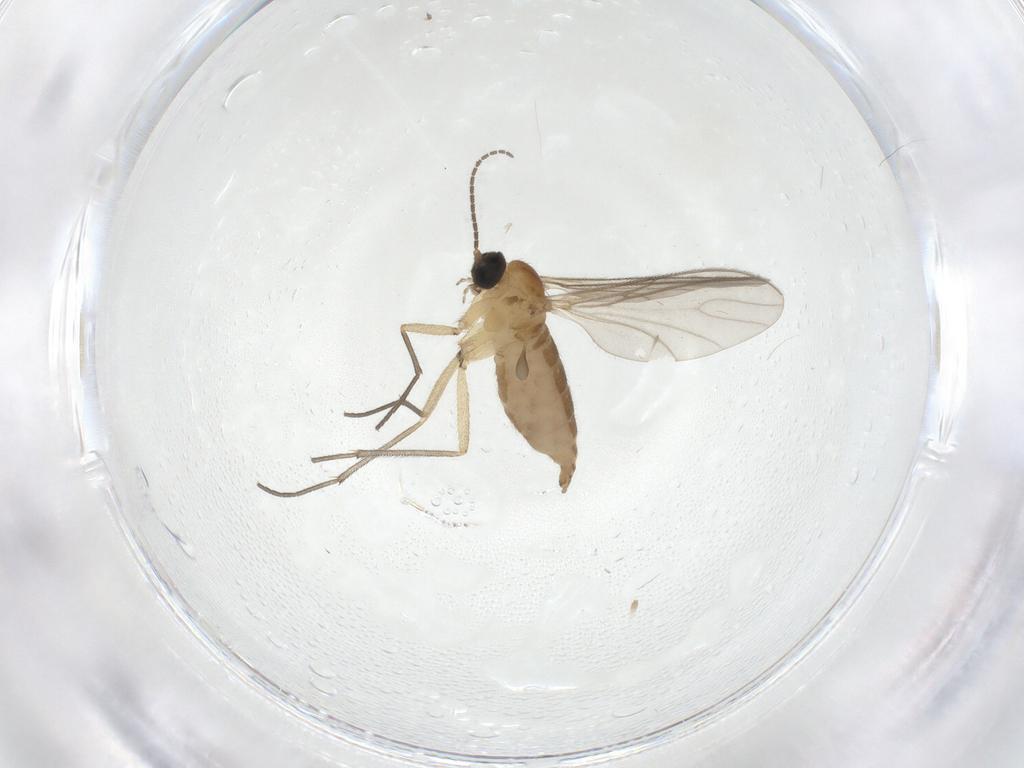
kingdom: Animalia
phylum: Arthropoda
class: Insecta
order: Diptera
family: Sciaridae
